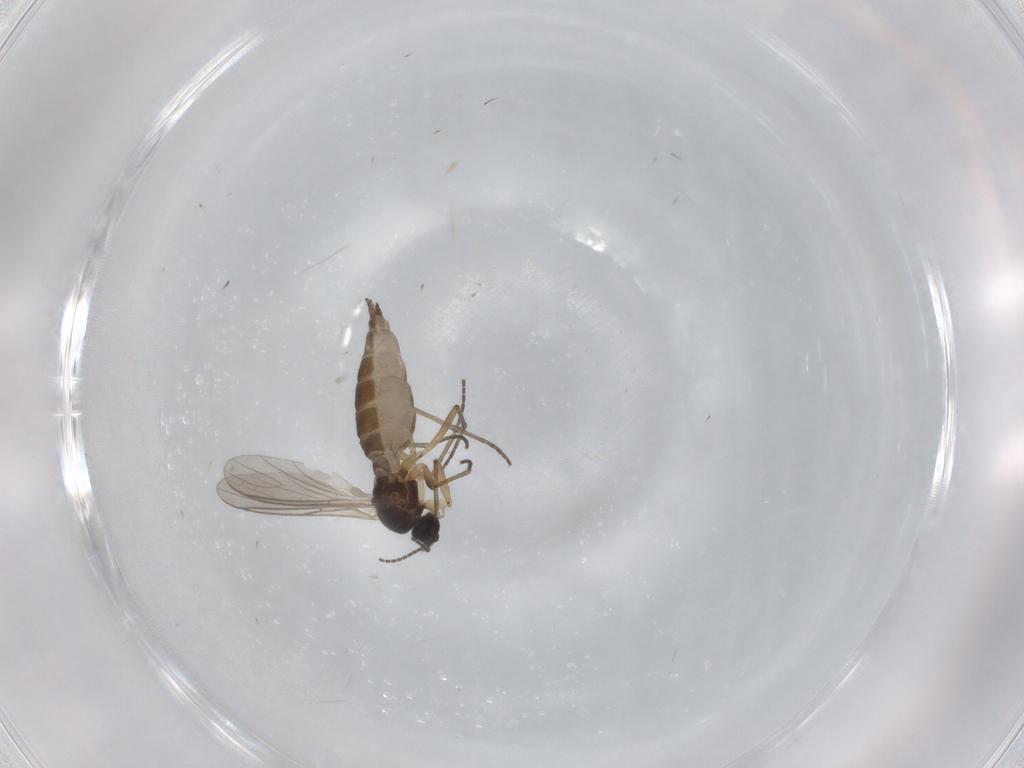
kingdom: Animalia
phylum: Arthropoda
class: Insecta
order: Diptera
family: Sciaridae
